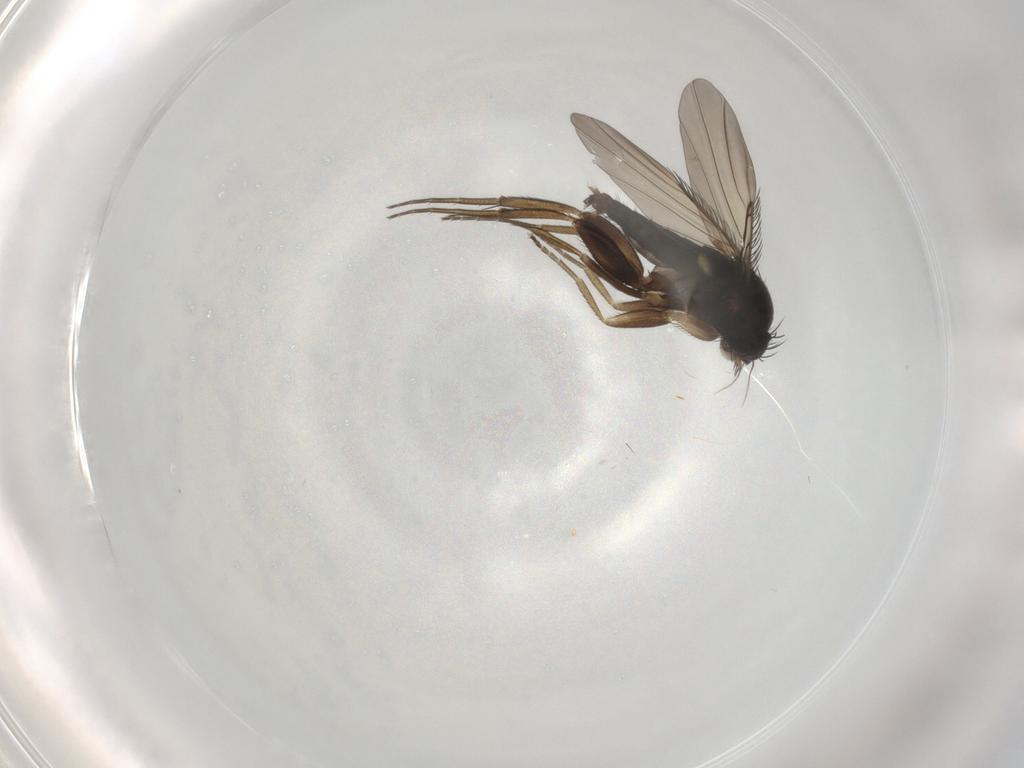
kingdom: Animalia
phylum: Arthropoda
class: Insecta
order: Diptera
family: Phoridae
